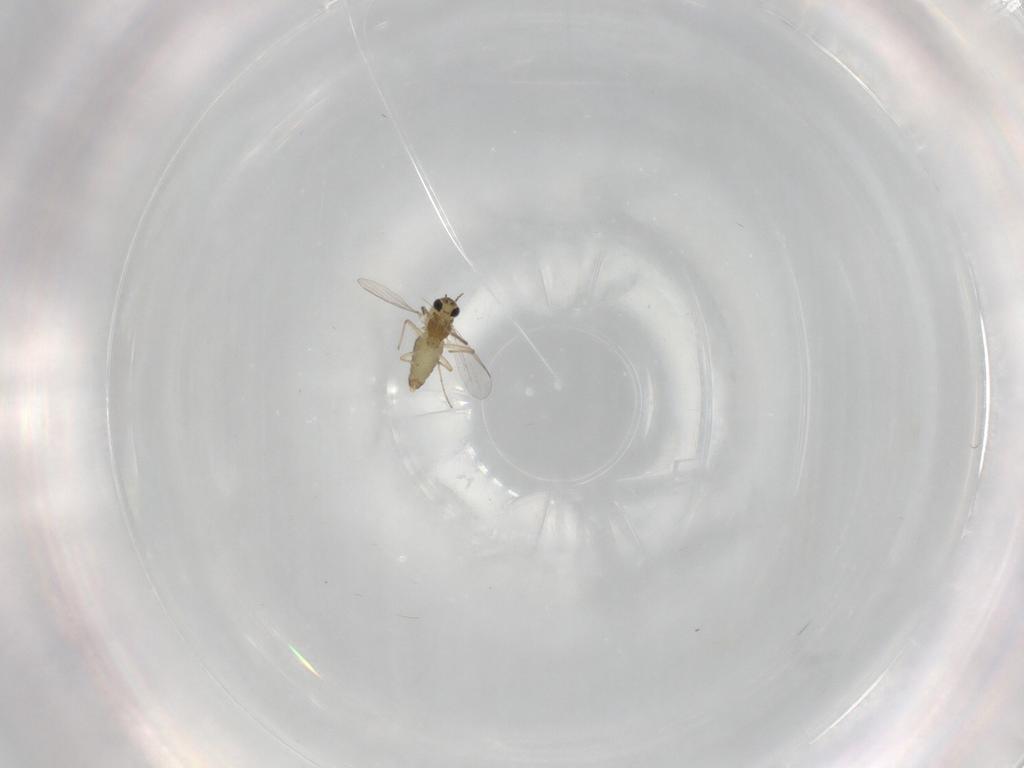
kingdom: Animalia
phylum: Arthropoda
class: Insecta
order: Diptera
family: Chironomidae
